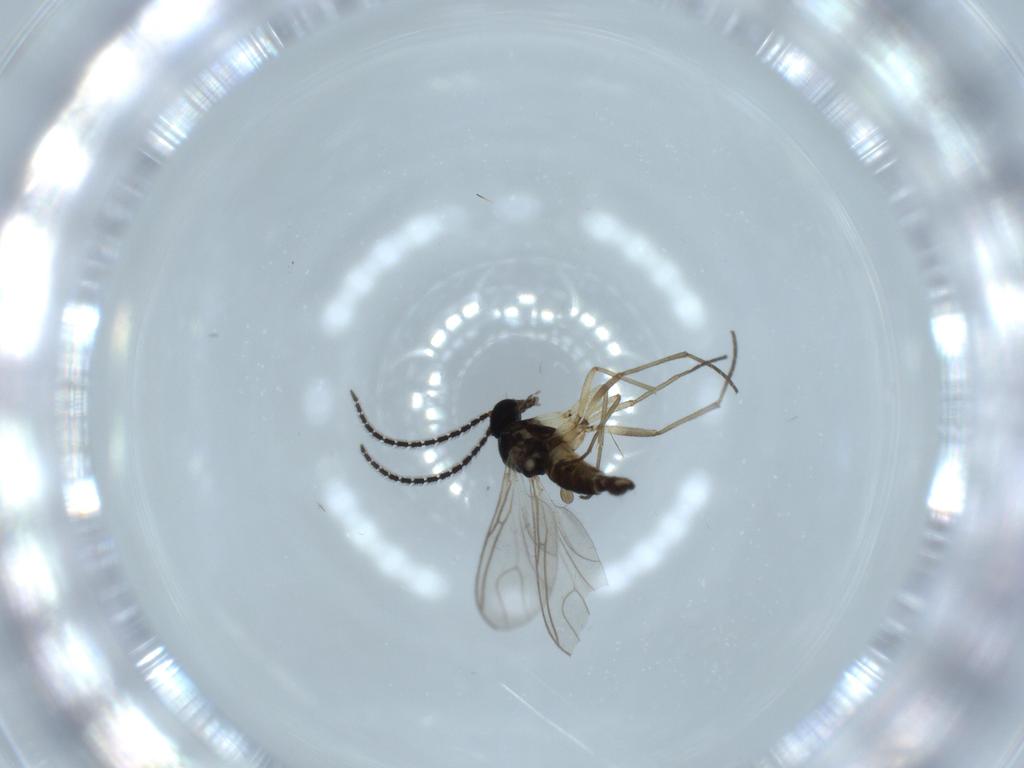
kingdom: Animalia
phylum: Arthropoda
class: Insecta
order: Diptera
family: Sciaridae
